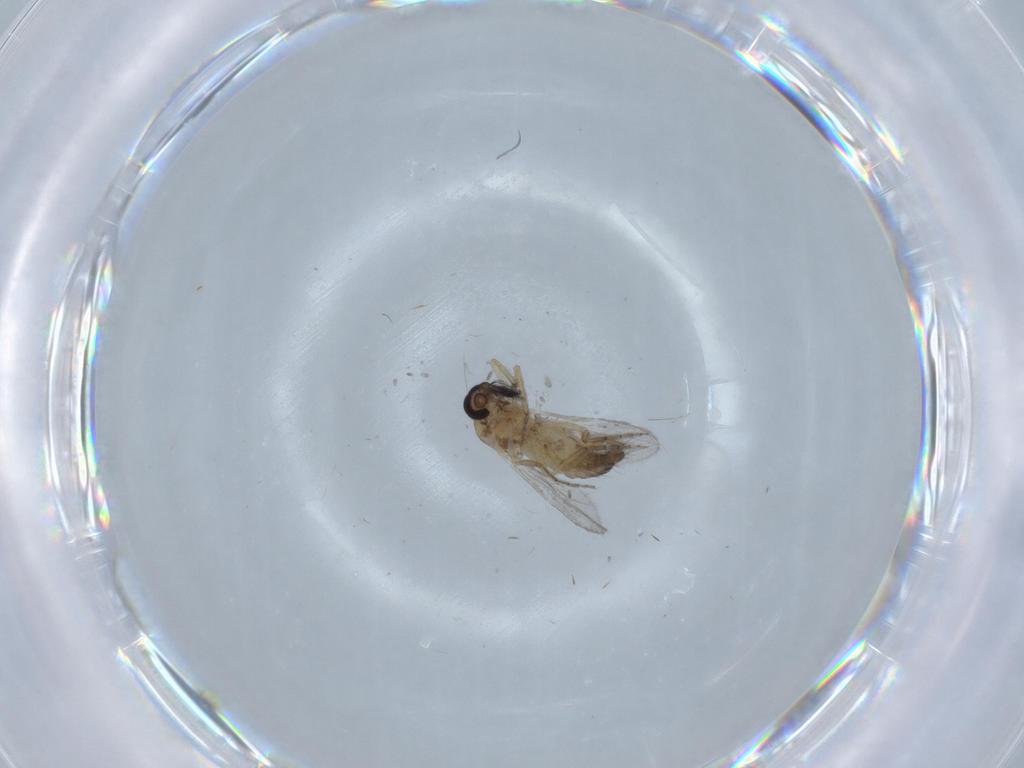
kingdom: Animalia
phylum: Arthropoda
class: Insecta
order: Diptera
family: Ceratopogonidae
